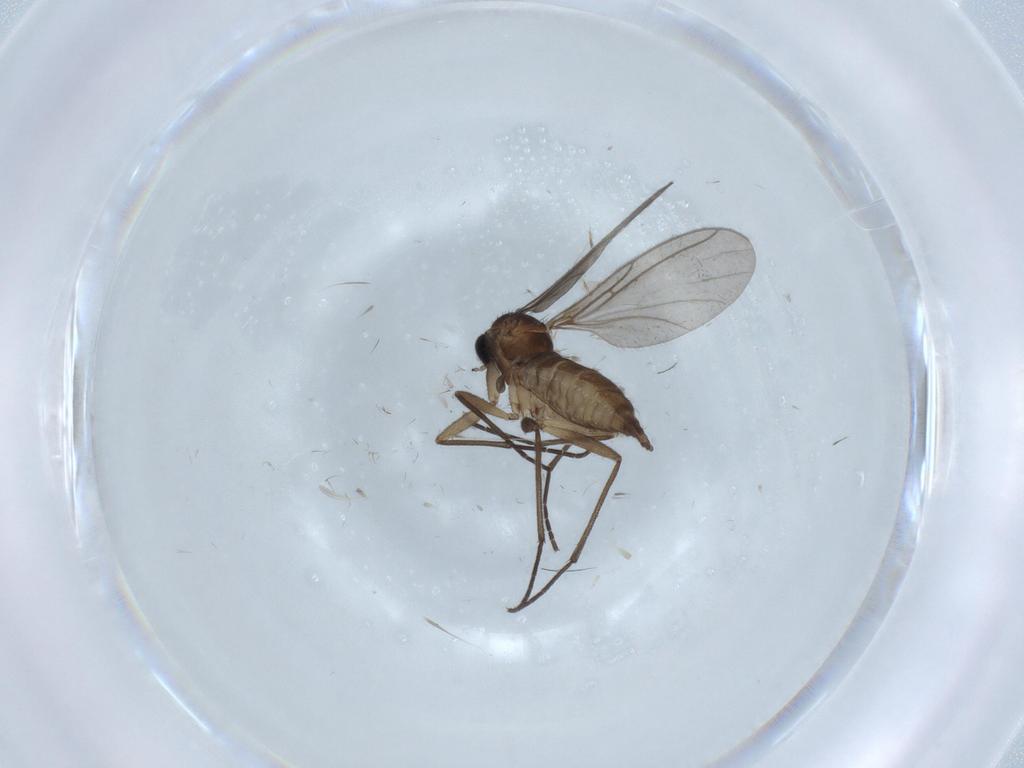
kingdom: Animalia
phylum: Arthropoda
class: Insecta
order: Diptera
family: Sciaridae
